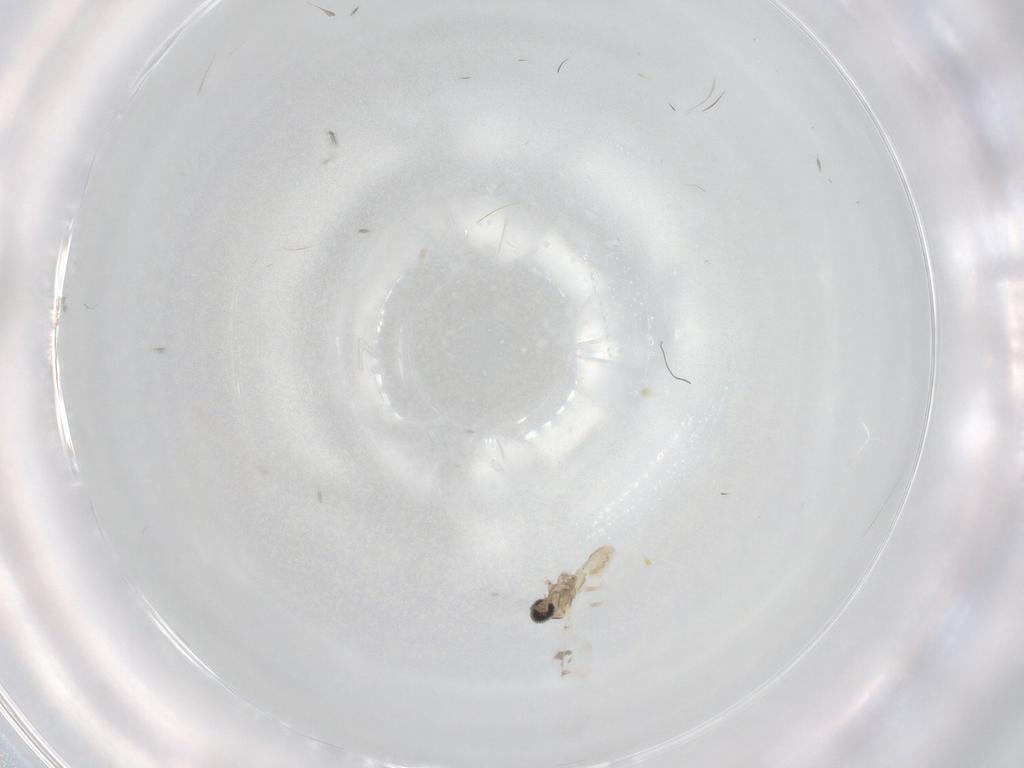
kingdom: Animalia
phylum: Arthropoda
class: Insecta
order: Diptera
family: Cecidomyiidae
